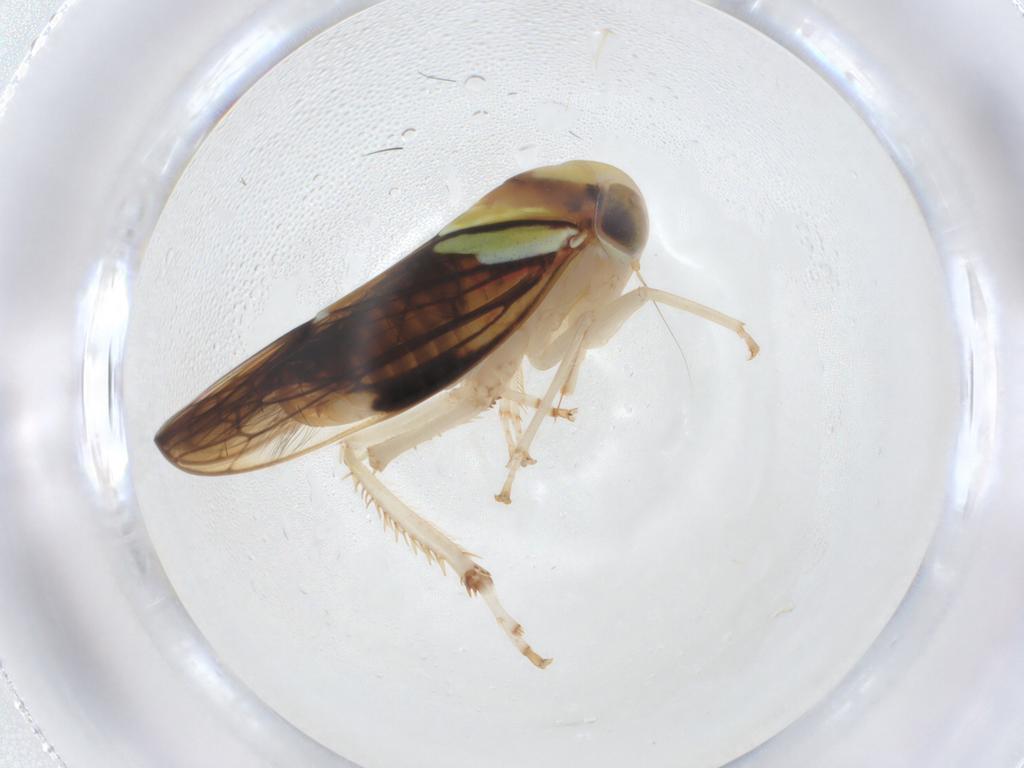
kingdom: Animalia
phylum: Arthropoda
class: Insecta
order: Hemiptera
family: Cicadellidae
